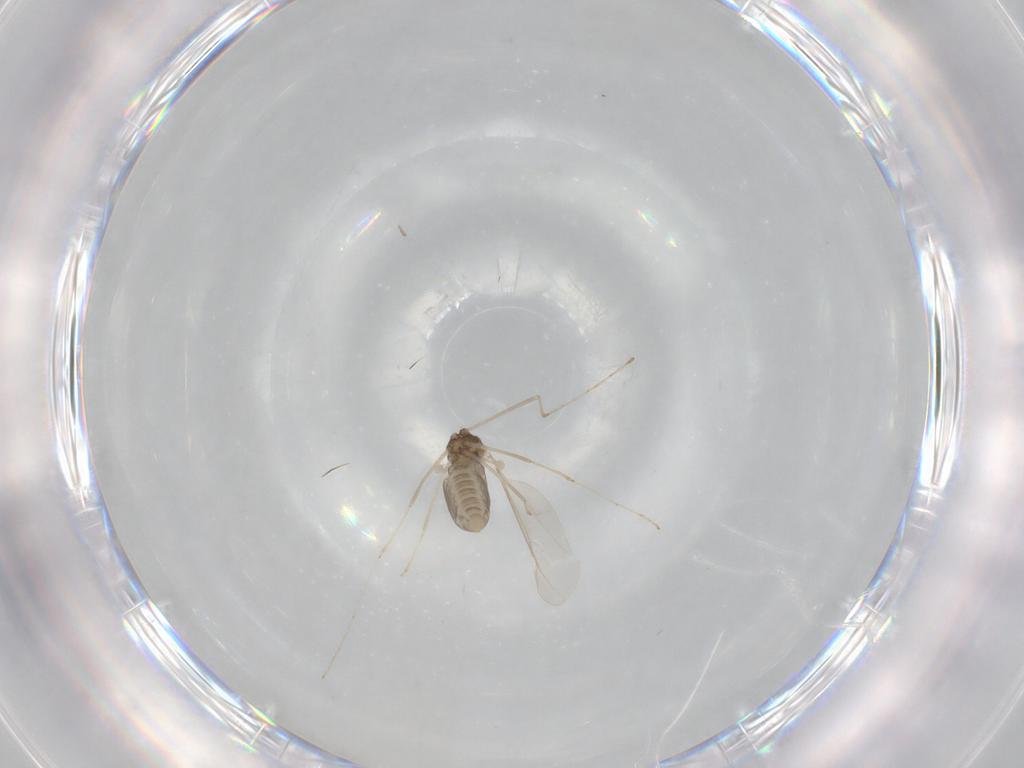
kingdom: Animalia
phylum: Arthropoda
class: Insecta
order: Diptera
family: Cecidomyiidae
